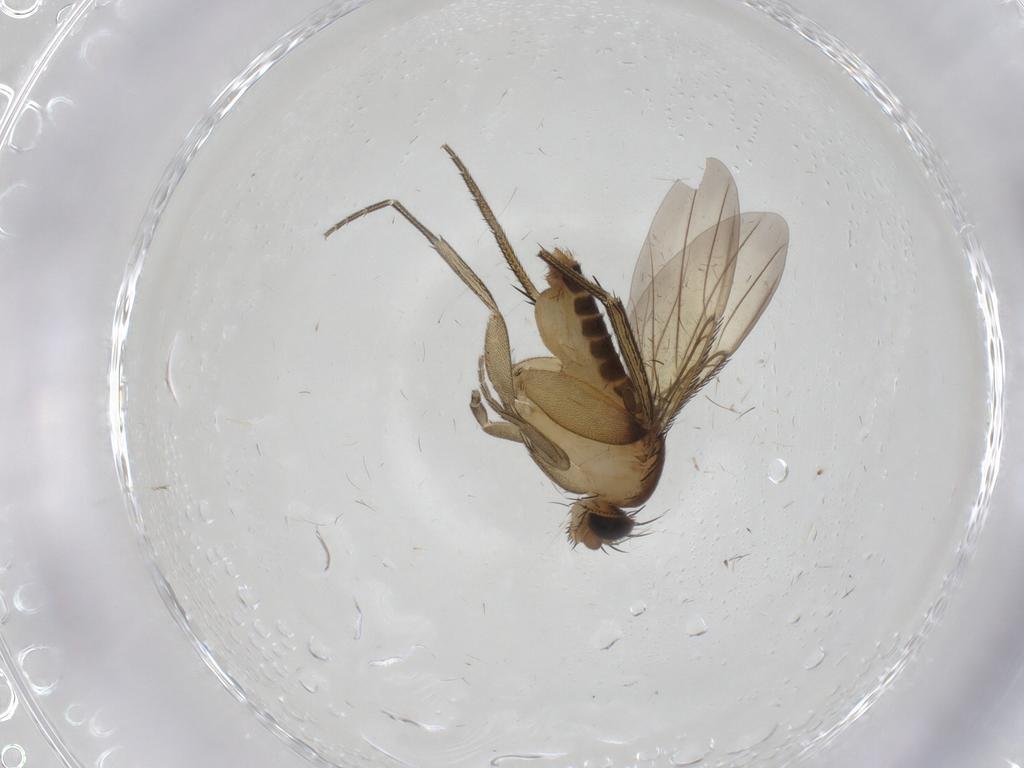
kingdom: Animalia
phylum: Arthropoda
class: Insecta
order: Diptera
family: Phoridae
